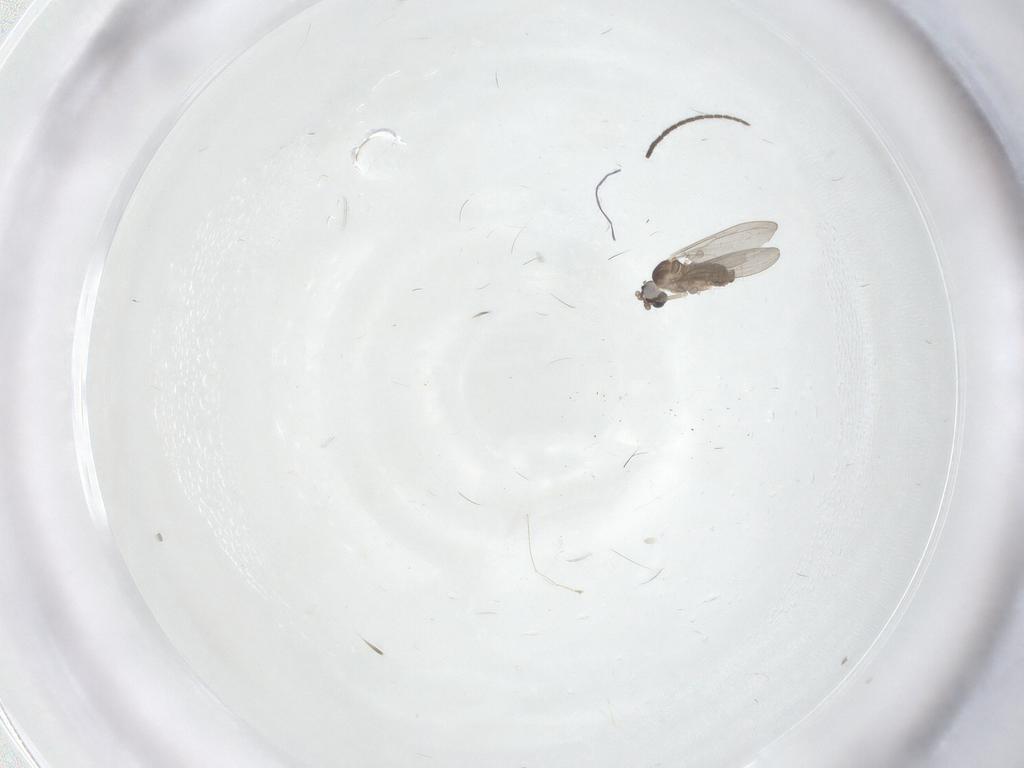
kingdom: Animalia
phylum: Arthropoda
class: Insecta
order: Diptera
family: Cecidomyiidae
